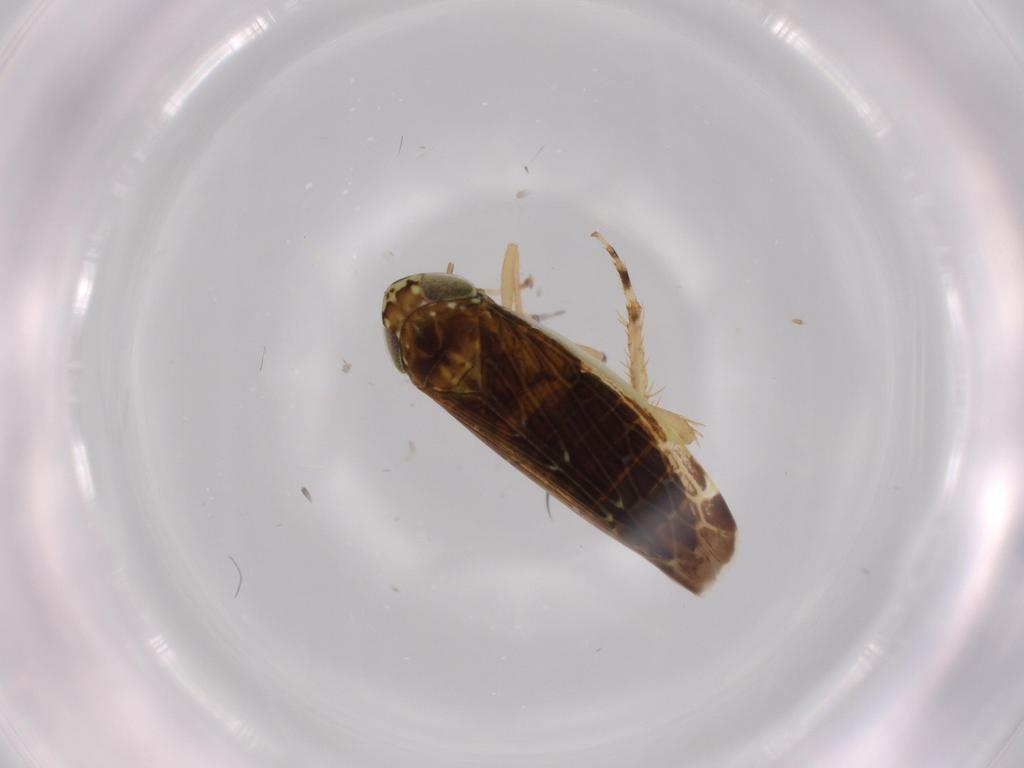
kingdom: Animalia
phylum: Arthropoda
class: Insecta
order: Hemiptera
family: Cicadellidae
